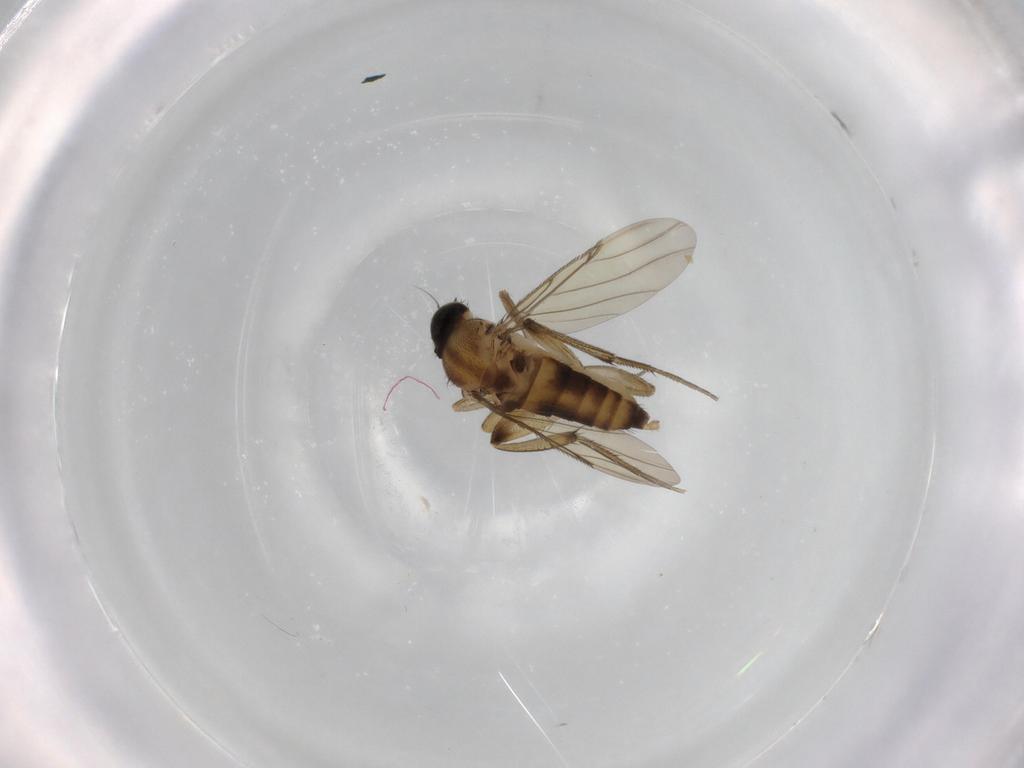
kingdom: Animalia
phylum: Arthropoda
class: Insecta
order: Diptera
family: Phoridae
